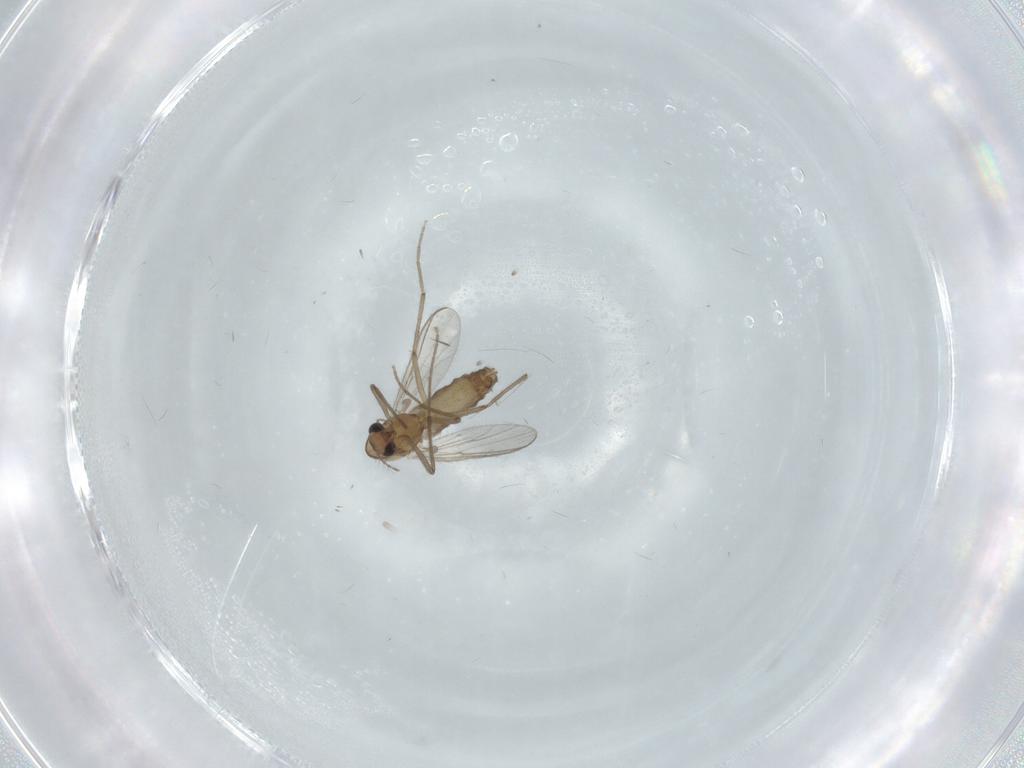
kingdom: Animalia
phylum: Arthropoda
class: Insecta
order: Diptera
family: Chironomidae
